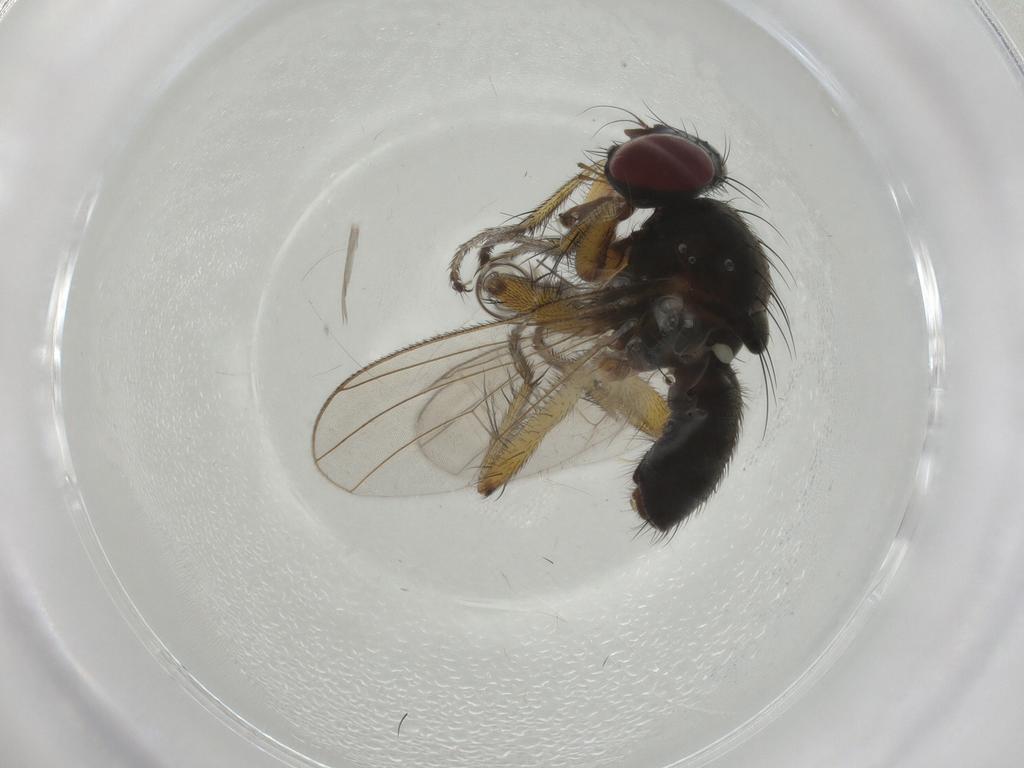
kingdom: Animalia
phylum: Arthropoda
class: Insecta
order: Diptera
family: Muscidae
